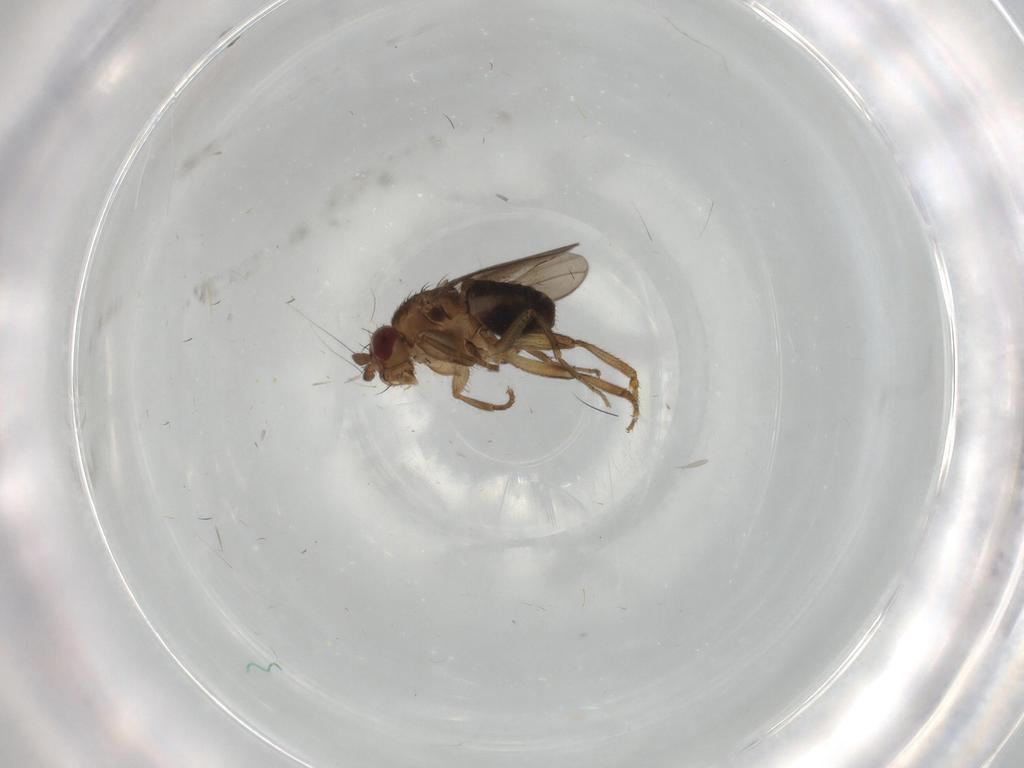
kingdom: Animalia
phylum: Arthropoda
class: Insecta
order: Diptera
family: Sphaeroceridae
